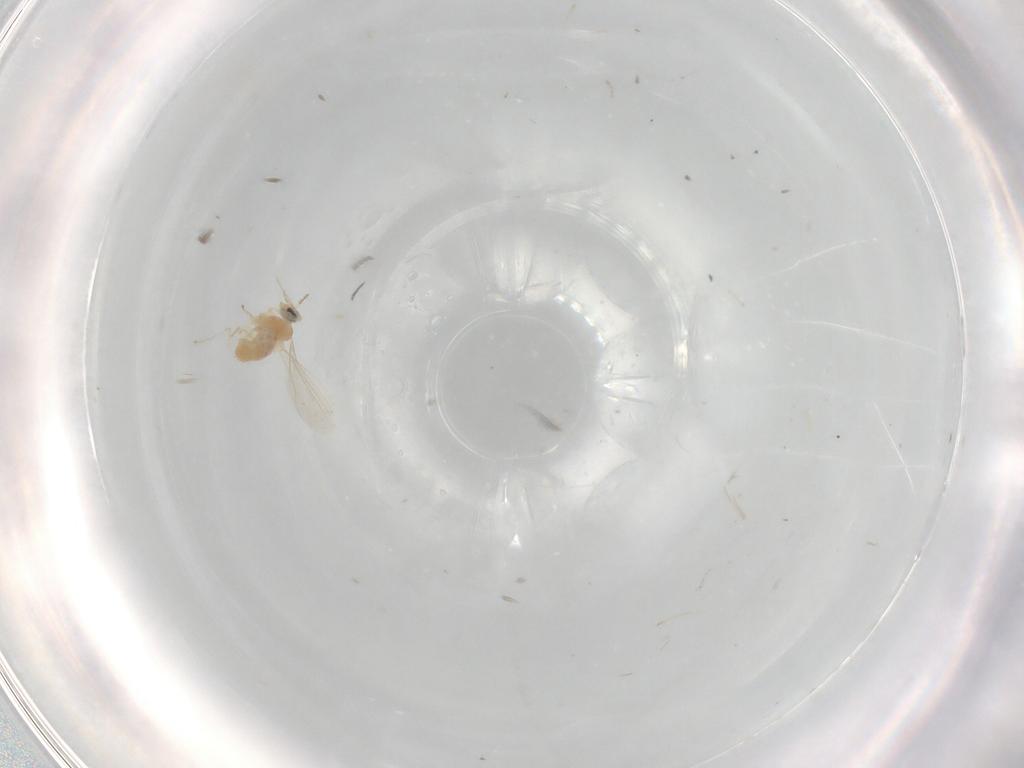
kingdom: Animalia
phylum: Arthropoda
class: Insecta
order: Diptera
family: Cecidomyiidae
